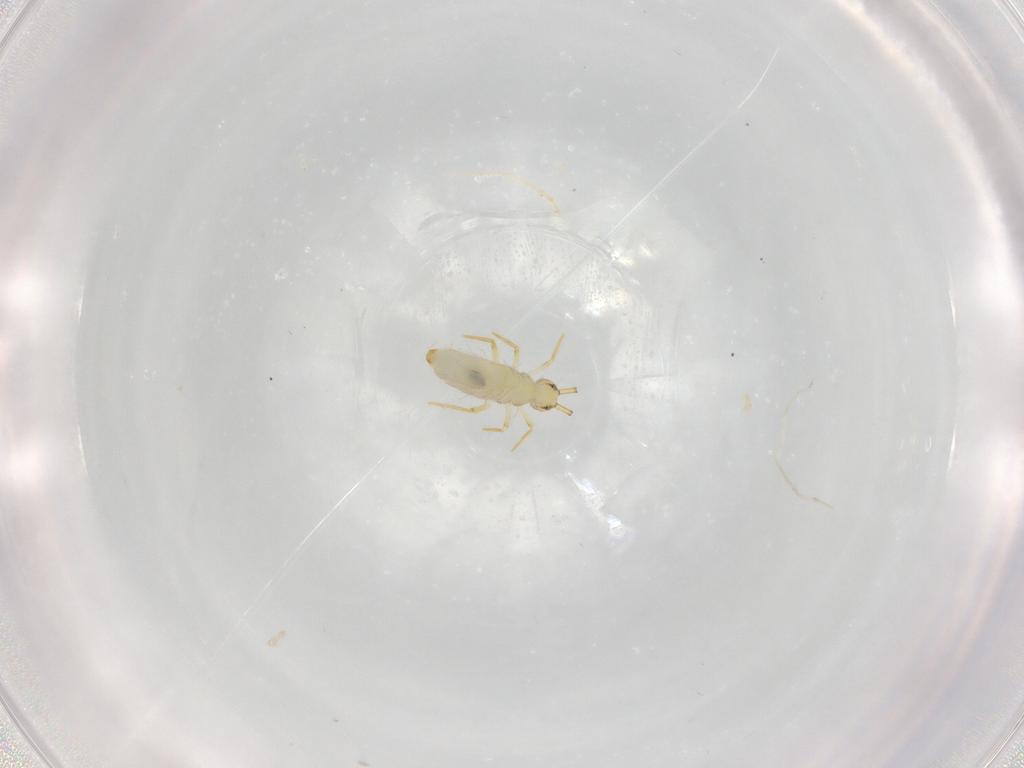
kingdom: Animalia
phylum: Arthropoda
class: Collembola
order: Entomobryomorpha
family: Paronellidae
